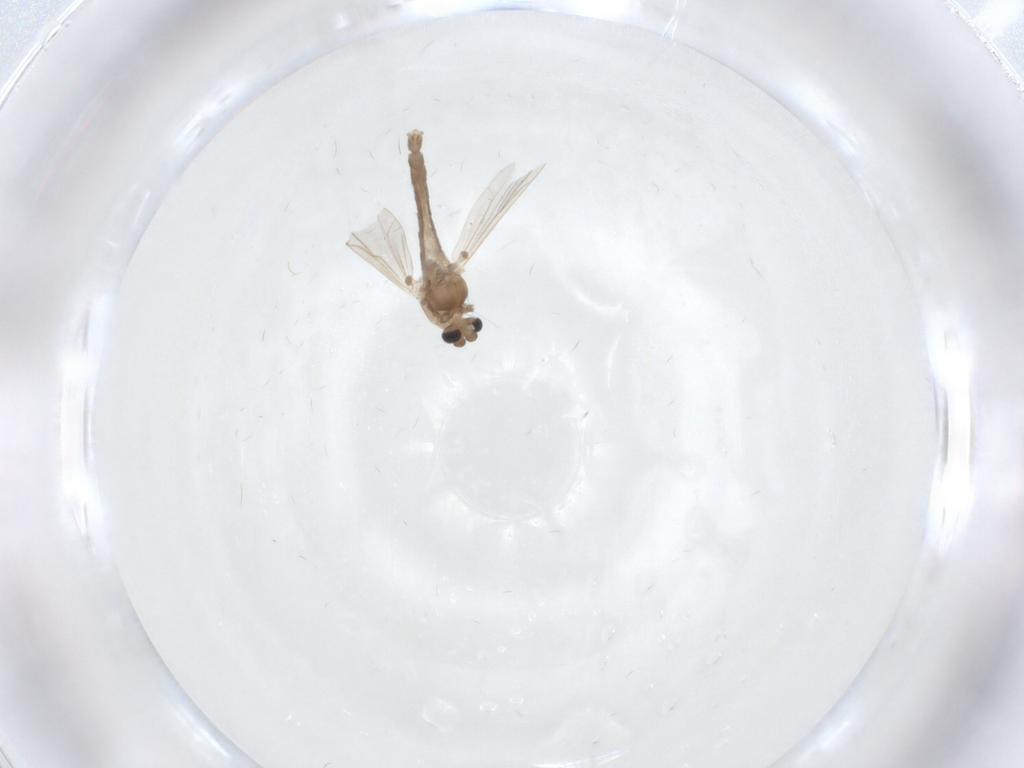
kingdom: Animalia
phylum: Arthropoda
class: Insecta
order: Diptera
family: Chironomidae
